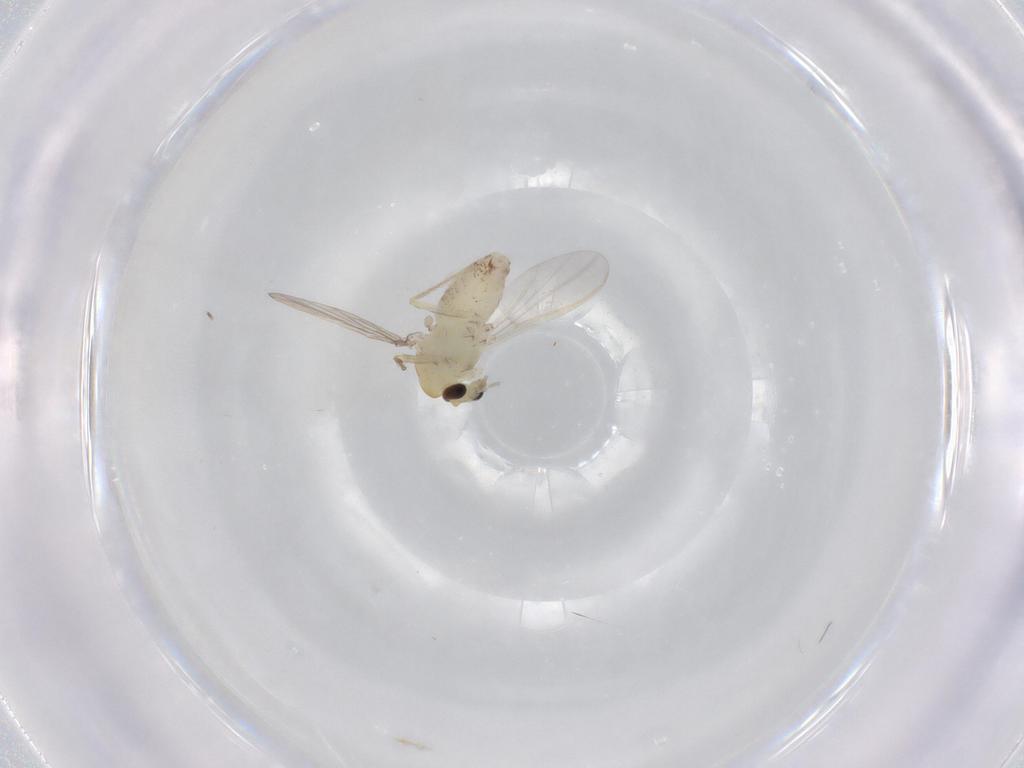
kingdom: Animalia
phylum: Arthropoda
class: Insecta
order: Diptera
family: Chironomidae
